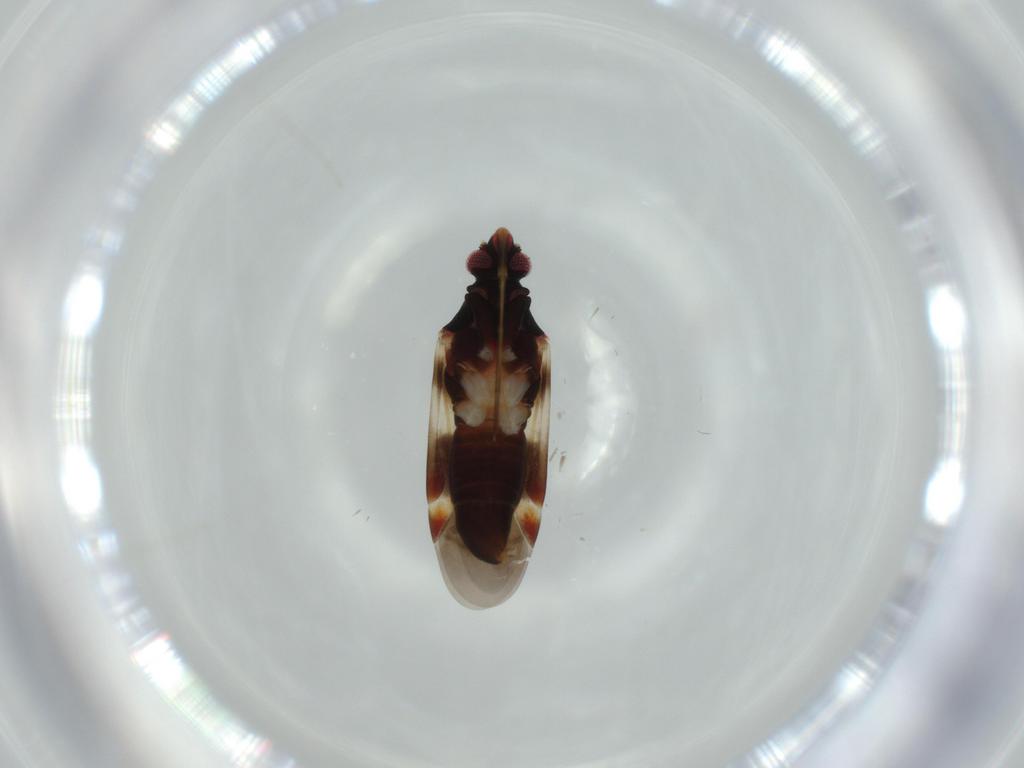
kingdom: Animalia
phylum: Arthropoda
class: Insecta
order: Hemiptera
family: Miridae
